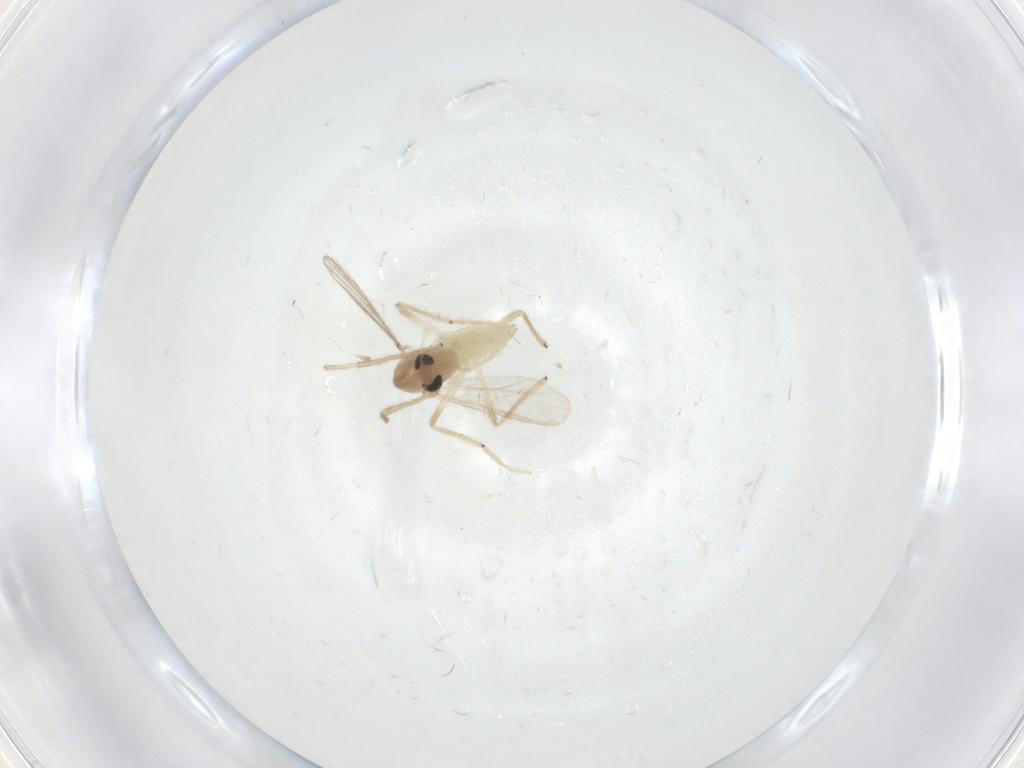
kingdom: Animalia
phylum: Arthropoda
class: Insecta
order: Diptera
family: Chironomidae
